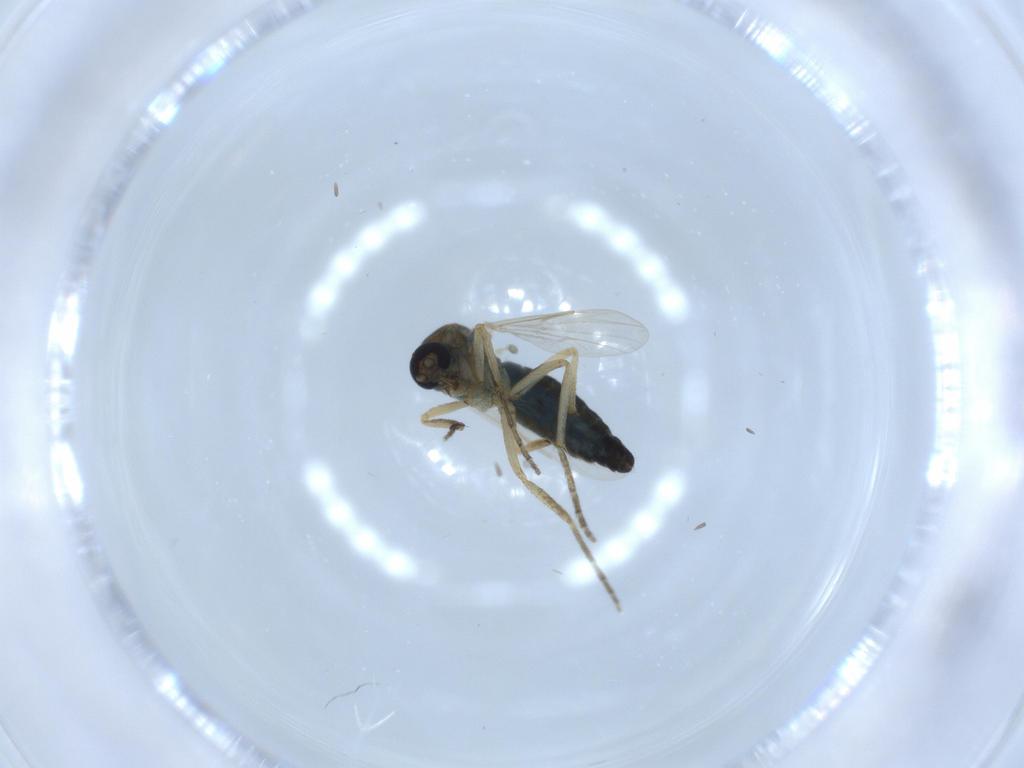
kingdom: Animalia
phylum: Arthropoda
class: Insecta
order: Diptera
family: Ceratopogonidae
